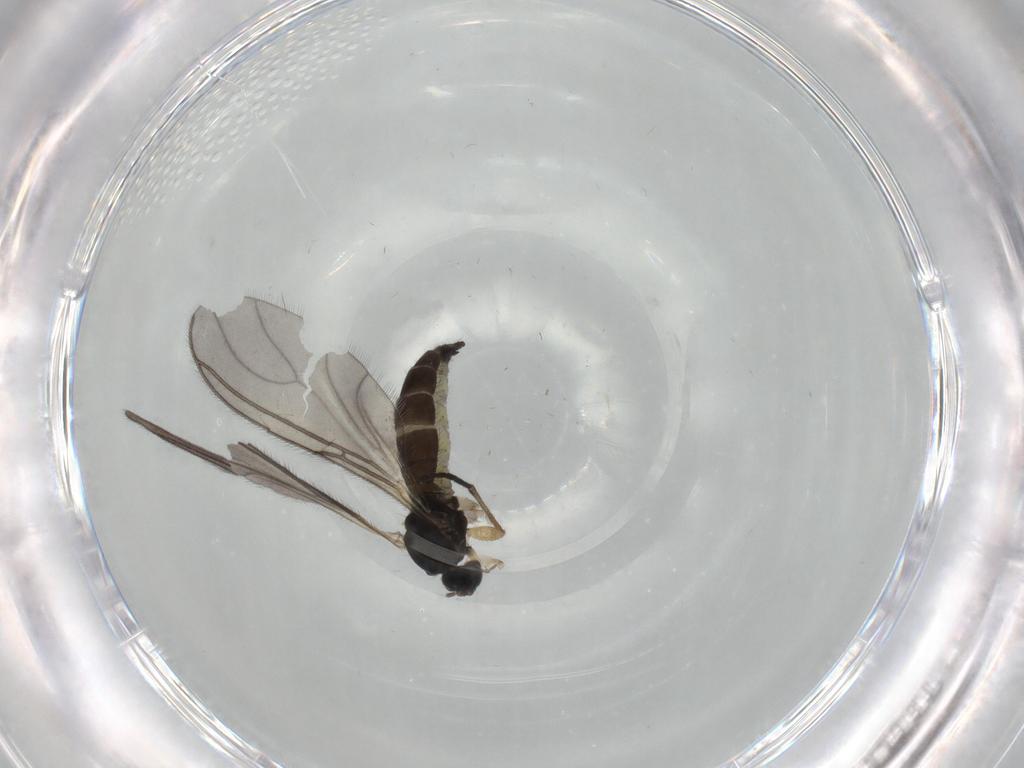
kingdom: Animalia
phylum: Arthropoda
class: Insecta
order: Diptera
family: Sciaridae
